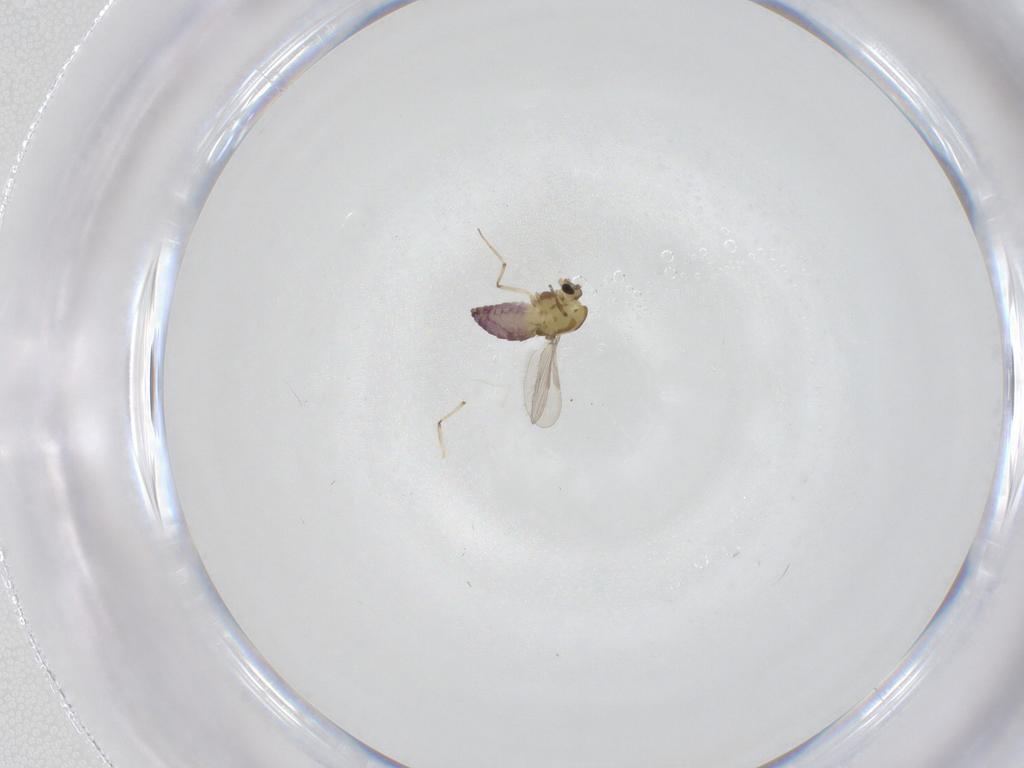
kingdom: Animalia
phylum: Arthropoda
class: Insecta
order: Diptera
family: Chironomidae
